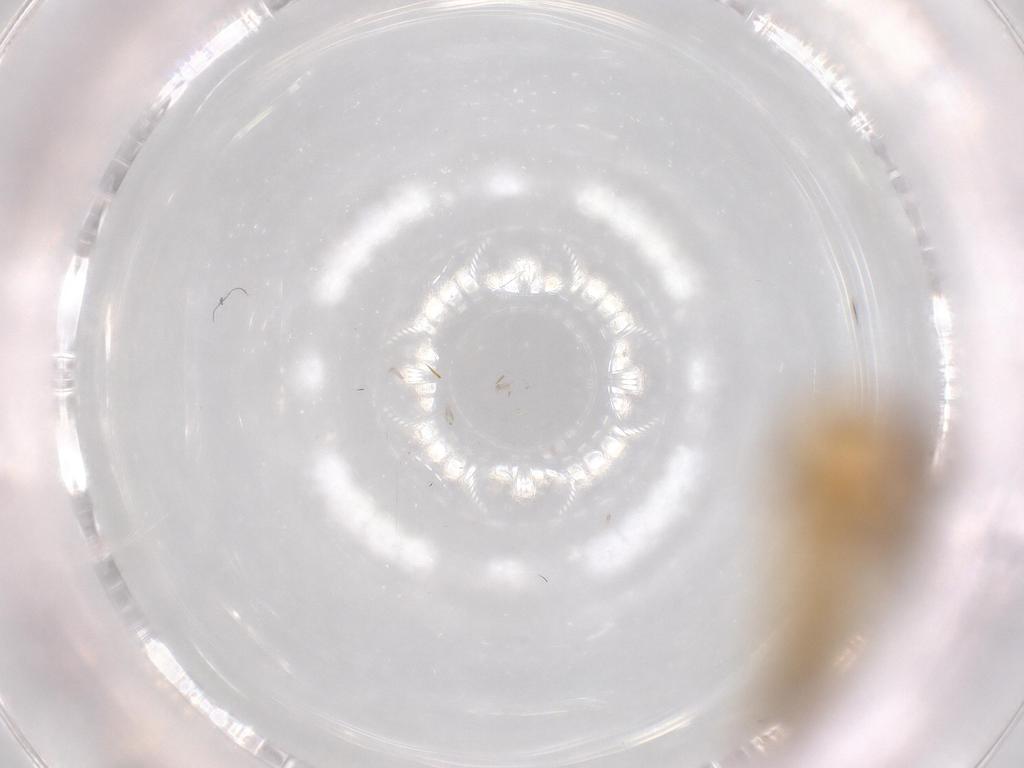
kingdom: Animalia
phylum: Arthropoda
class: Insecta
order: Hemiptera
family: Cicadellidae
